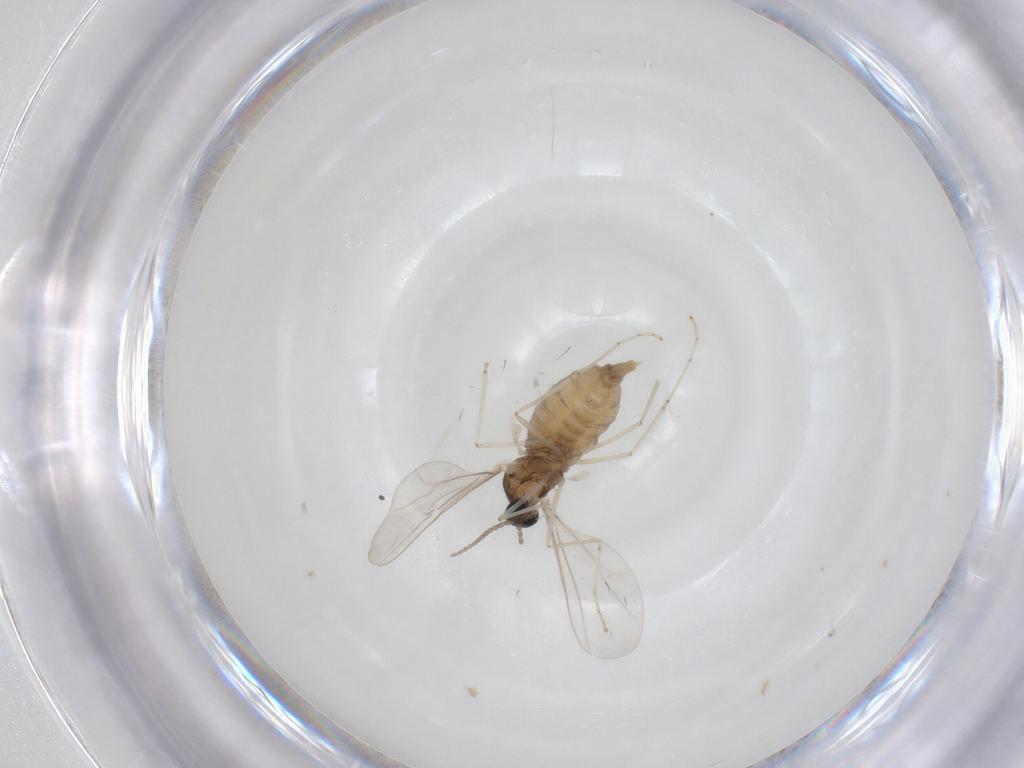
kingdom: Animalia
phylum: Arthropoda
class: Insecta
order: Diptera
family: Cecidomyiidae
